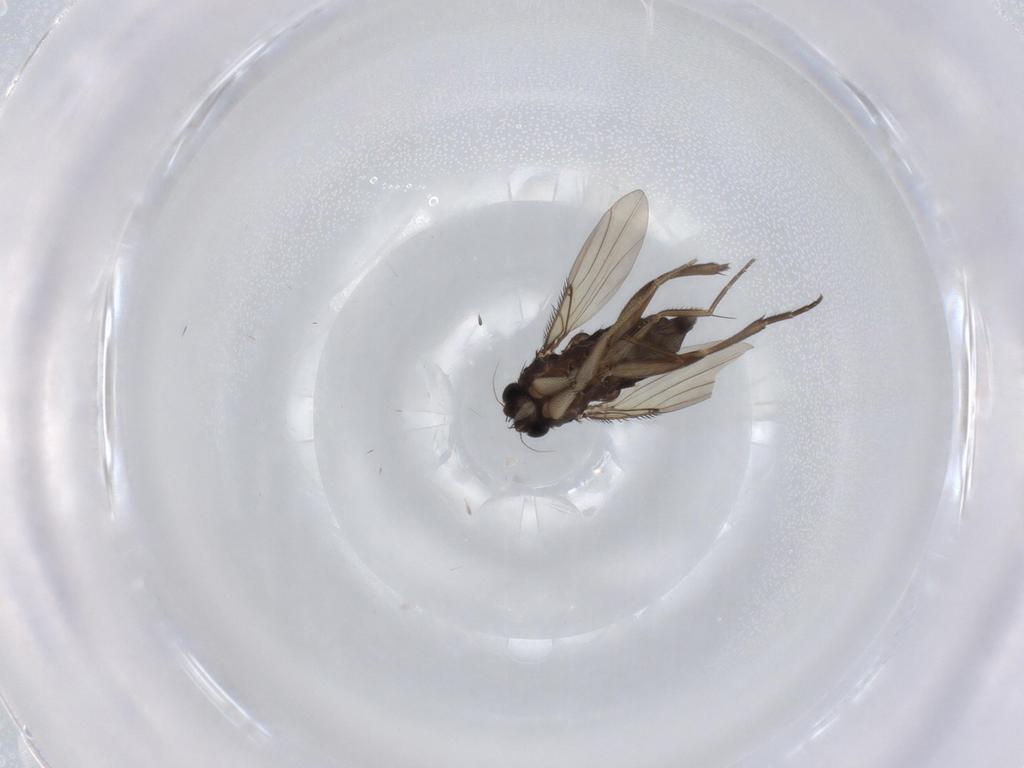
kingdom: Animalia
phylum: Arthropoda
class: Insecta
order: Diptera
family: Phoridae
